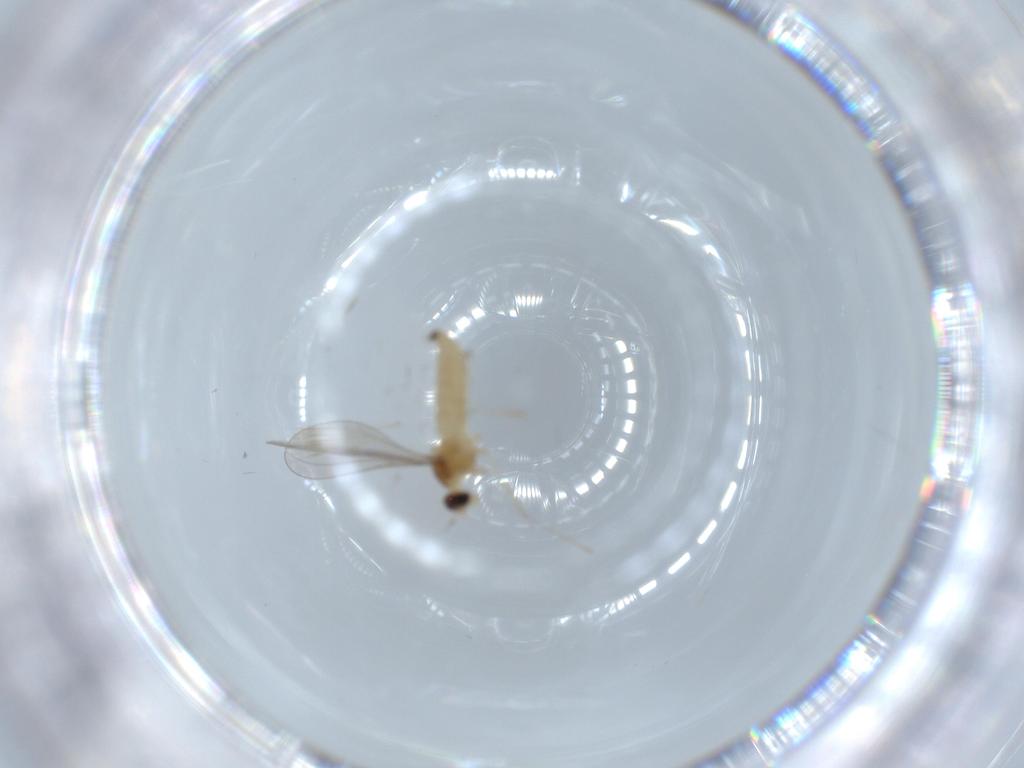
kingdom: Animalia
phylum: Arthropoda
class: Insecta
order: Diptera
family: Cecidomyiidae
